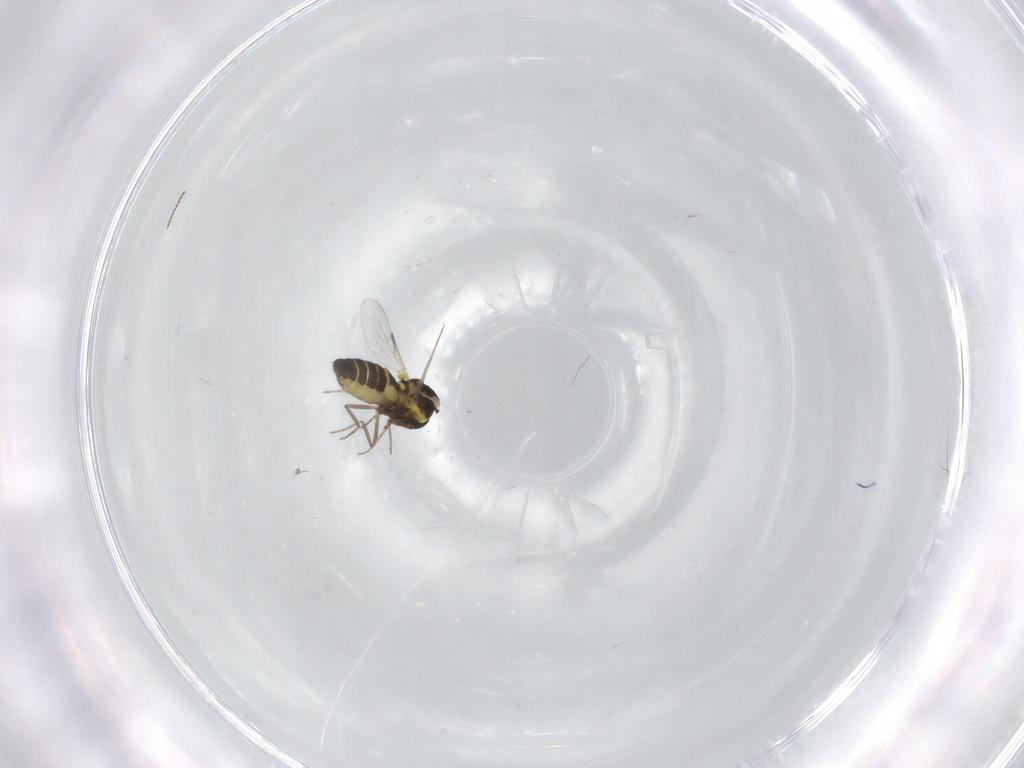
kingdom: Animalia
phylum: Arthropoda
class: Insecta
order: Diptera
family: Ceratopogonidae
